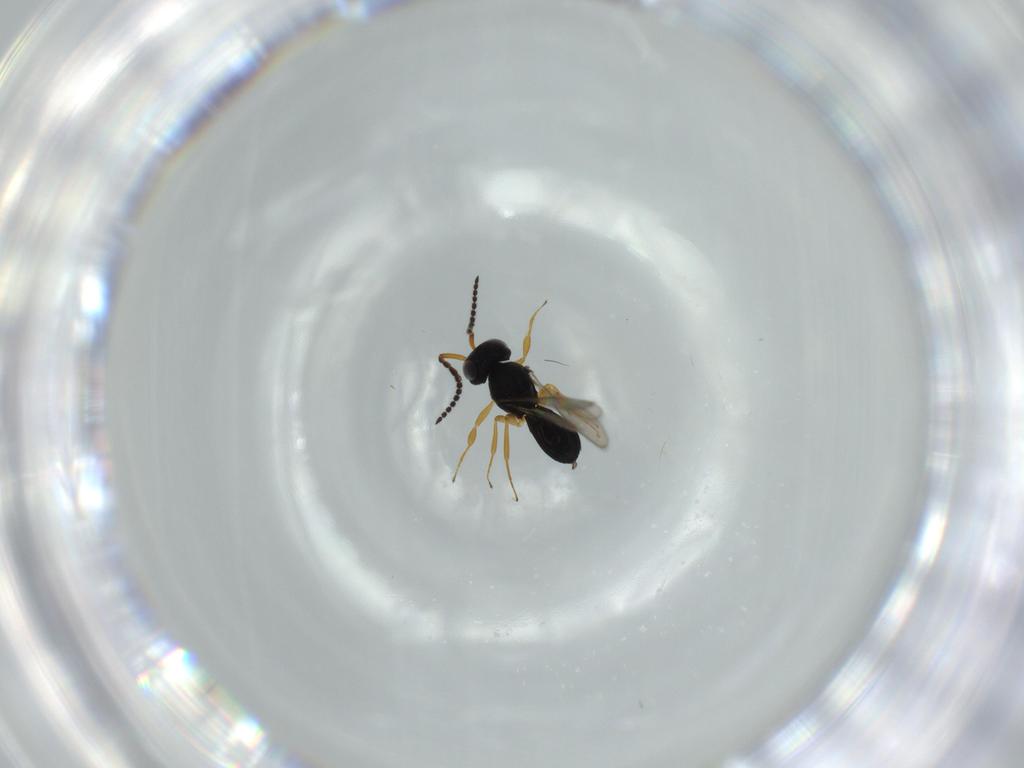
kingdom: Animalia
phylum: Arthropoda
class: Insecta
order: Hymenoptera
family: Scelionidae
